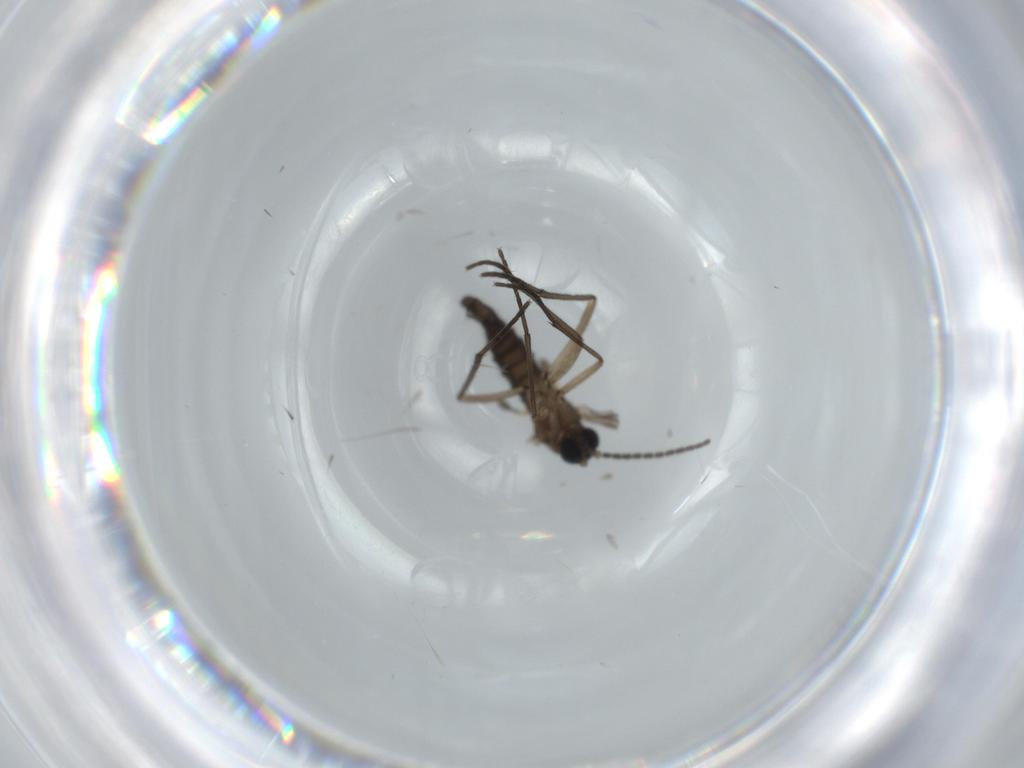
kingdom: Animalia
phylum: Arthropoda
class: Insecta
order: Diptera
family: Sciaridae
